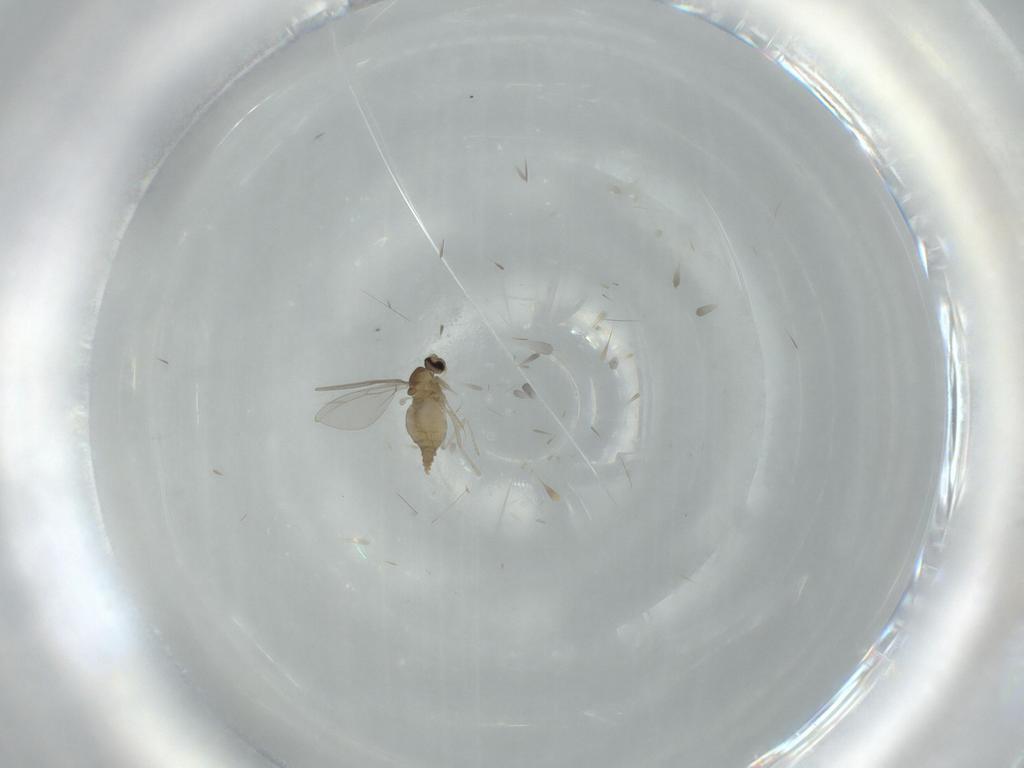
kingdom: Animalia
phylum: Arthropoda
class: Insecta
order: Diptera
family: Cecidomyiidae
